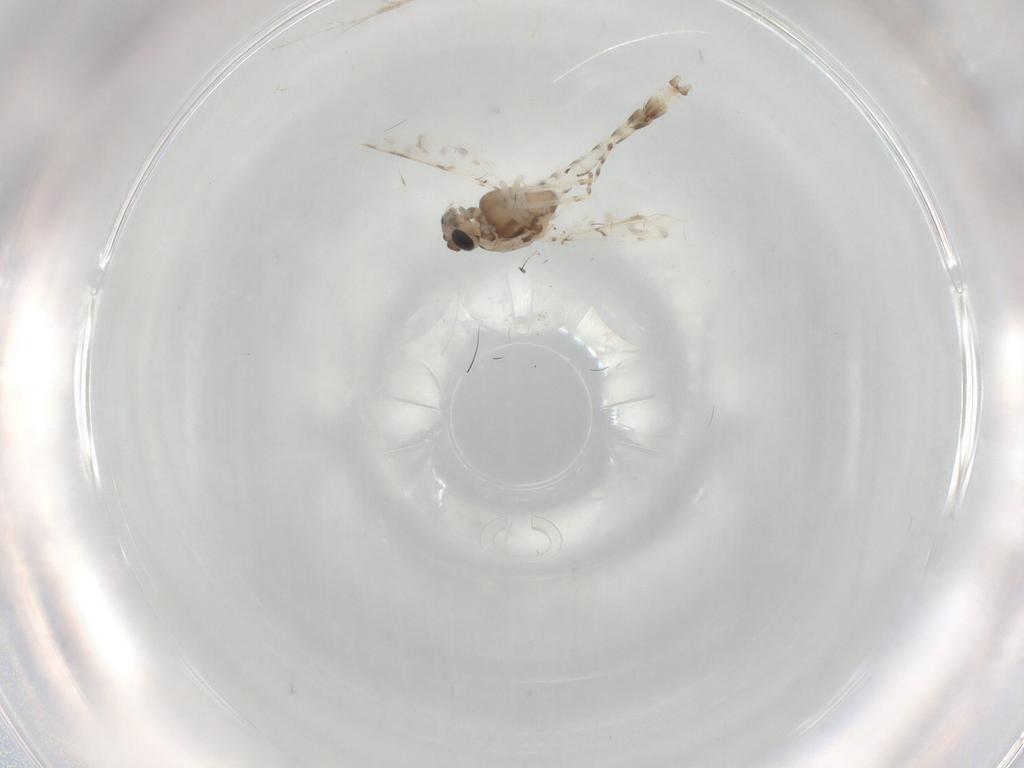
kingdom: Animalia
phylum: Arthropoda
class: Insecta
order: Diptera
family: Chironomidae
